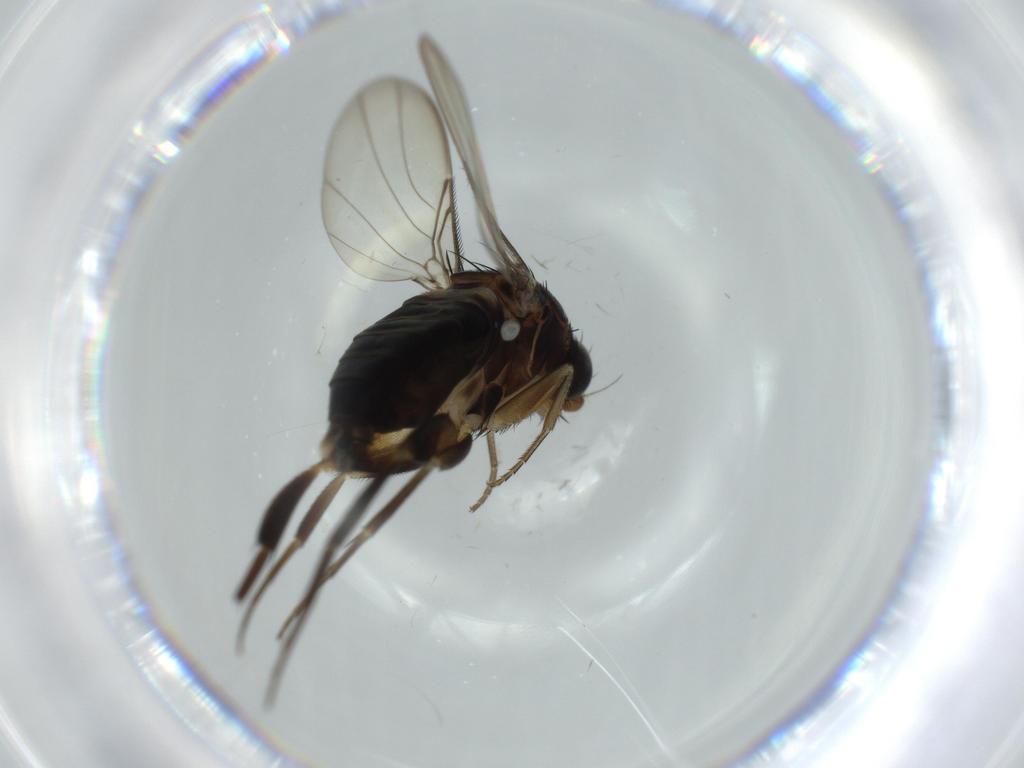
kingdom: Animalia
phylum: Arthropoda
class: Insecta
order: Diptera
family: Phoridae
